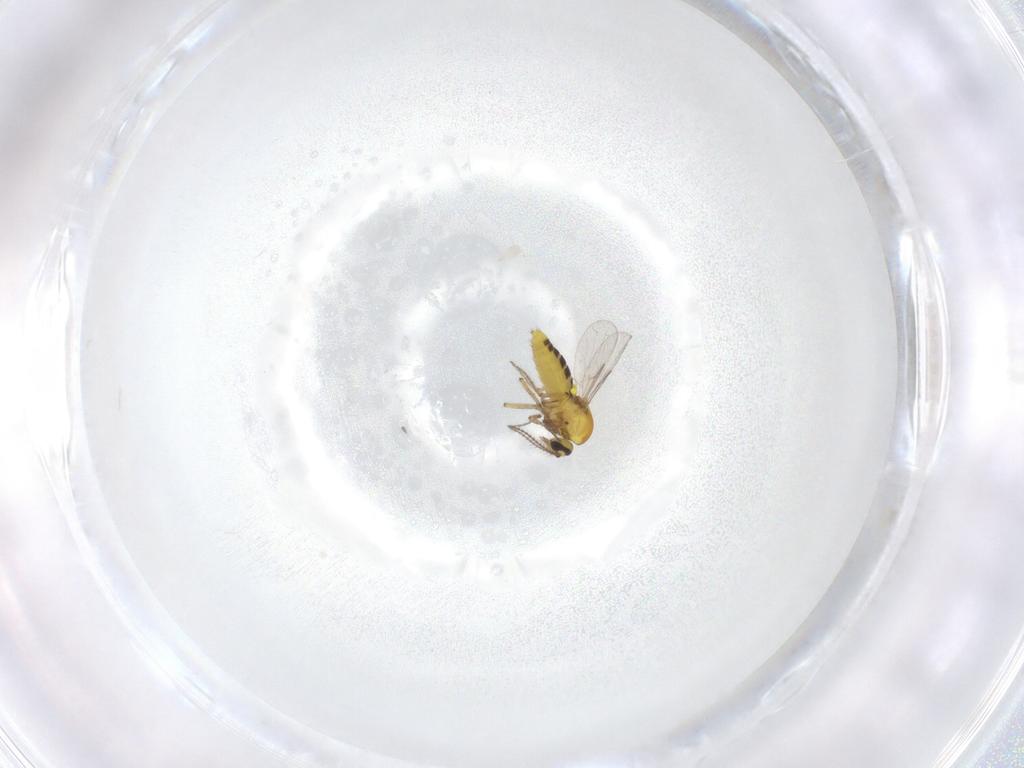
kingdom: Animalia
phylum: Arthropoda
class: Insecta
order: Diptera
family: Ceratopogonidae
